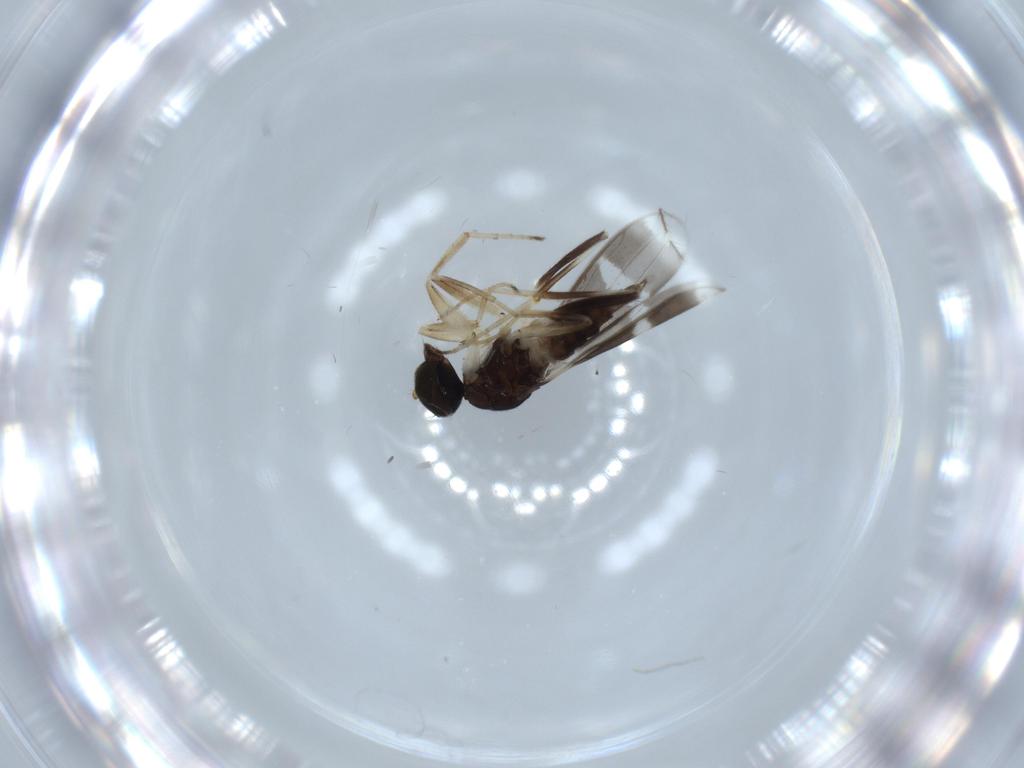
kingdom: Animalia
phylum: Arthropoda
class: Insecta
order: Diptera
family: Hybotidae
